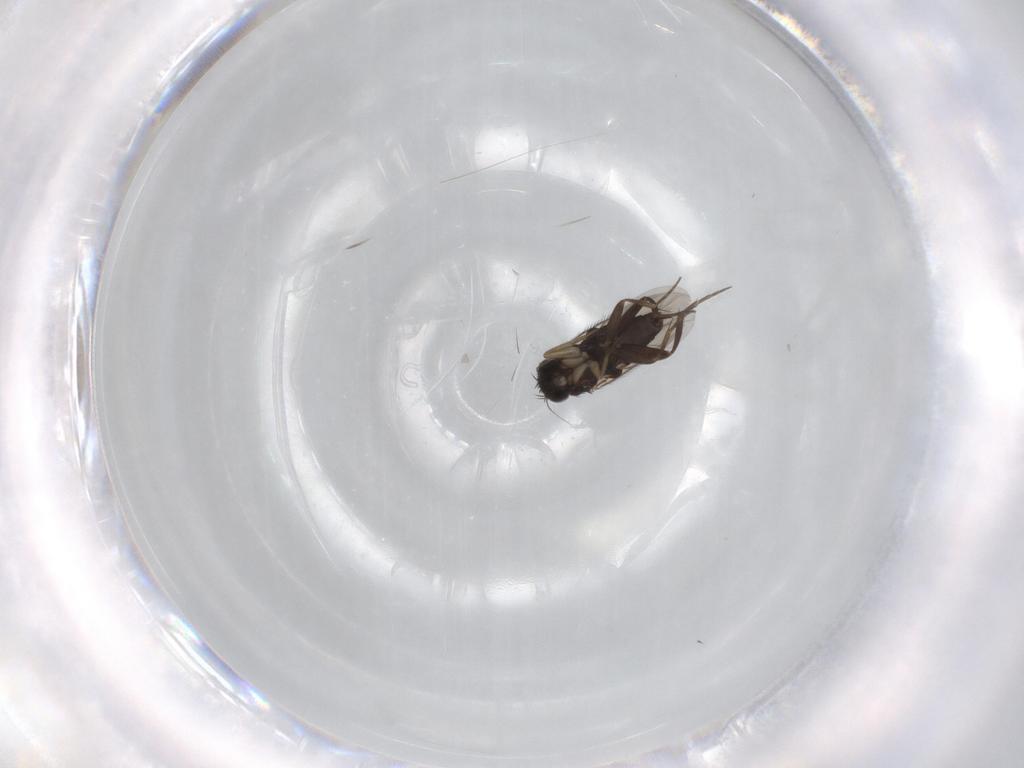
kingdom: Animalia
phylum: Arthropoda
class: Insecta
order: Diptera
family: Phoridae
